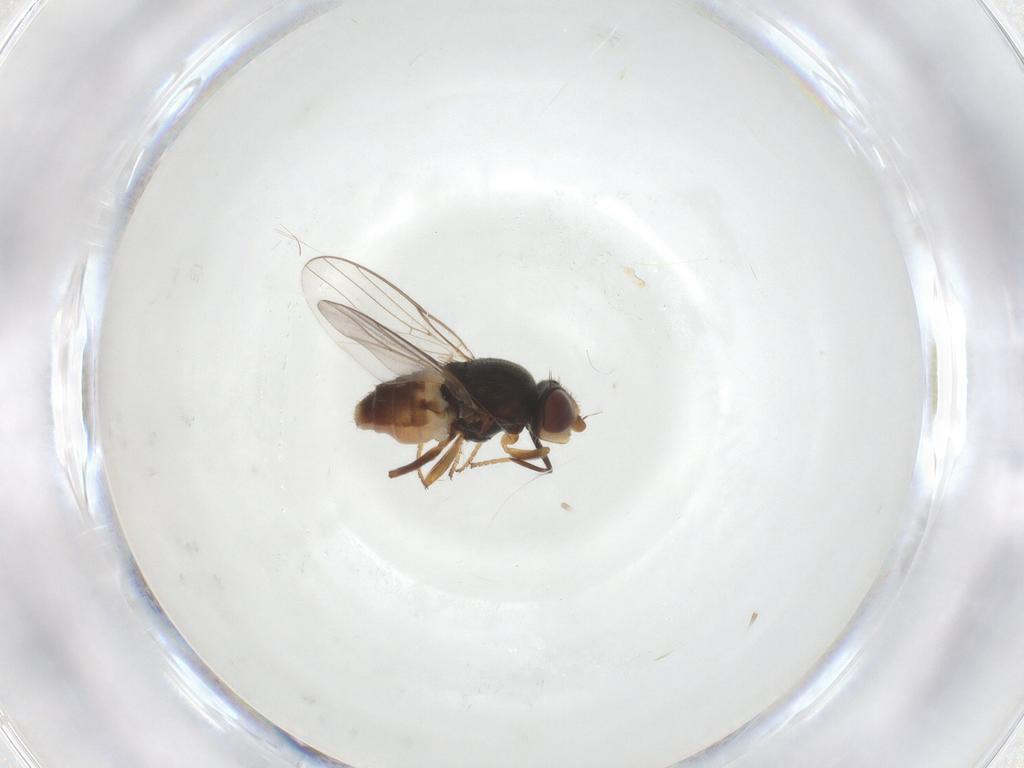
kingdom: Animalia
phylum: Arthropoda
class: Insecta
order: Diptera
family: Chloropidae
